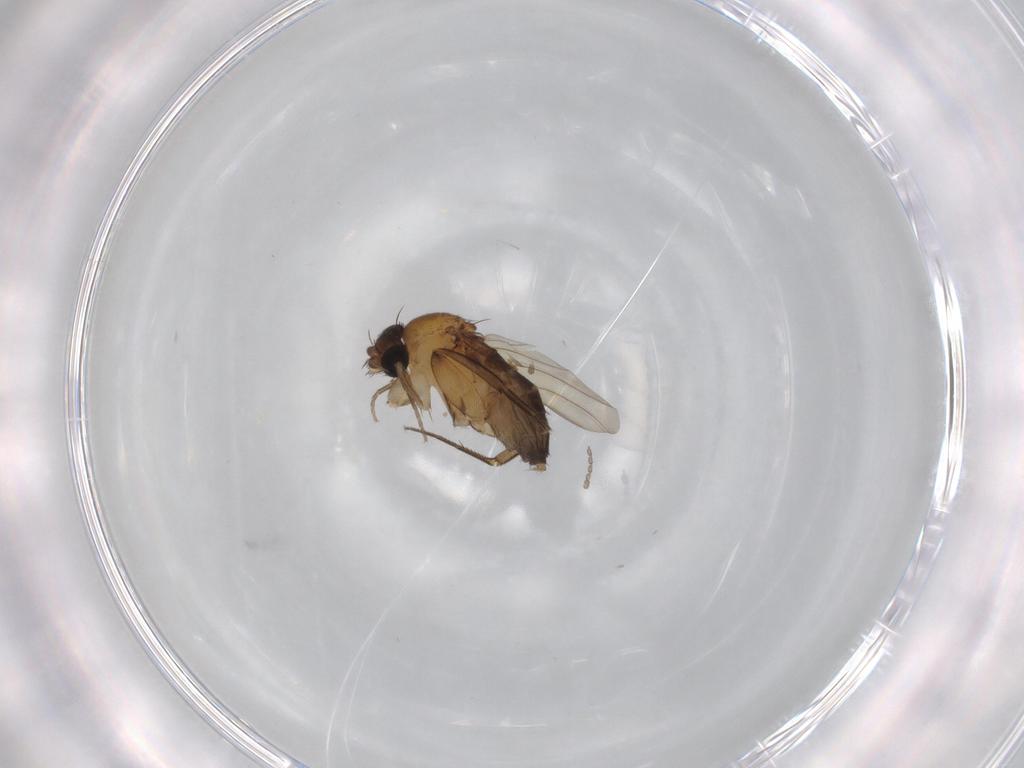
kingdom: Animalia
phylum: Arthropoda
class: Insecta
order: Diptera
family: Phoridae
